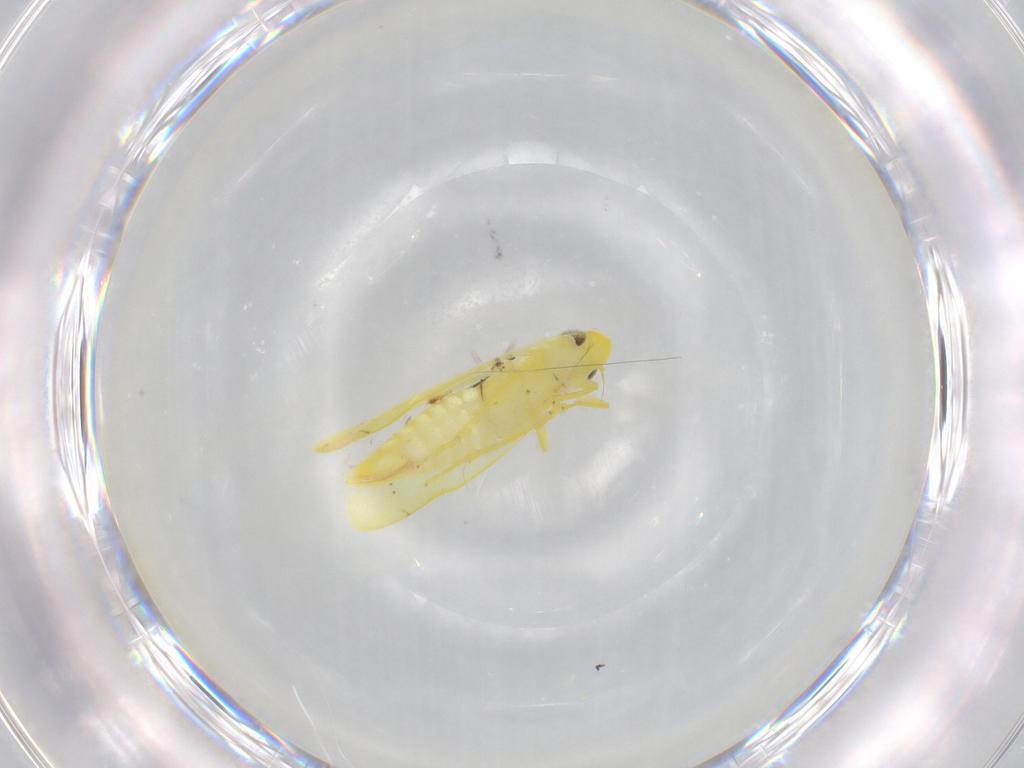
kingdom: Animalia
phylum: Arthropoda
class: Insecta
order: Hemiptera
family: Cicadellidae
